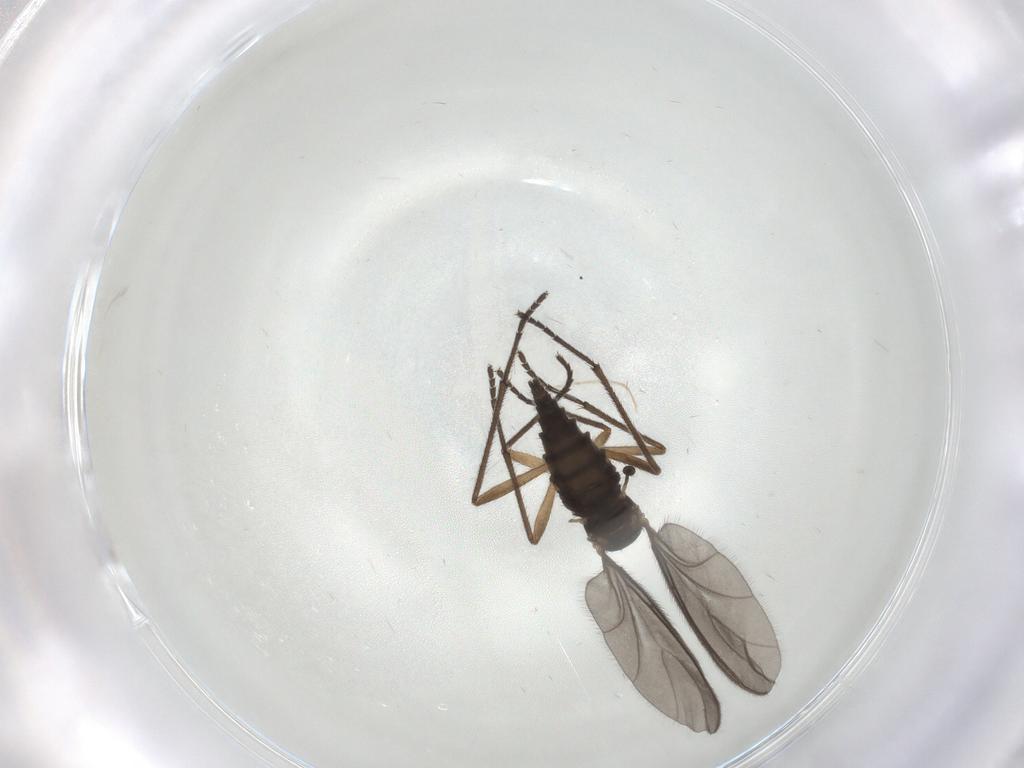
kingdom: Animalia
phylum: Arthropoda
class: Insecta
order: Diptera
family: Sciaridae
